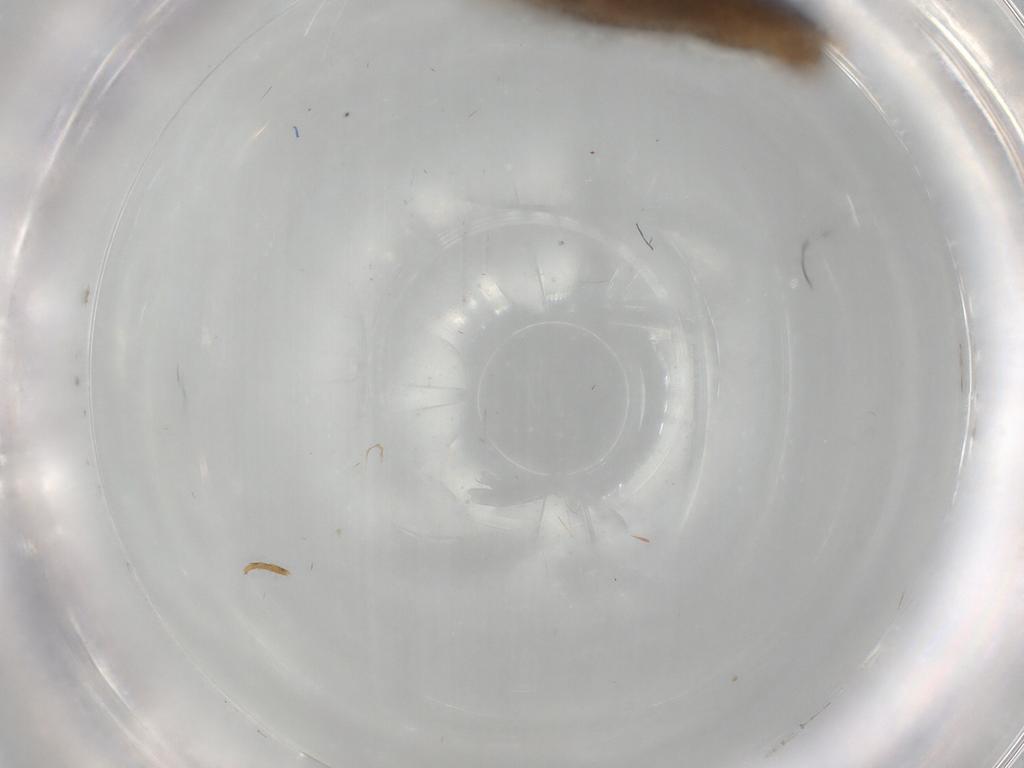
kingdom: Animalia
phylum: Arthropoda
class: Insecta
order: Lepidoptera
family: Tineidae
